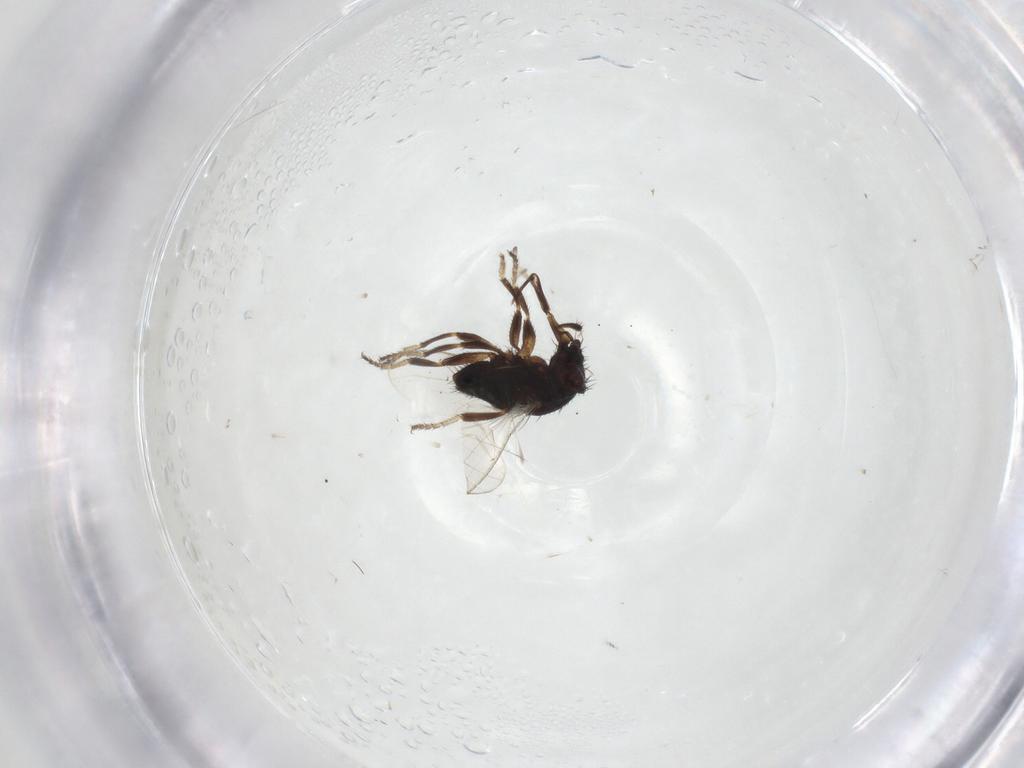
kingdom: Animalia
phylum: Arthropoda
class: Insecta
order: Diptera
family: Milichiidae
